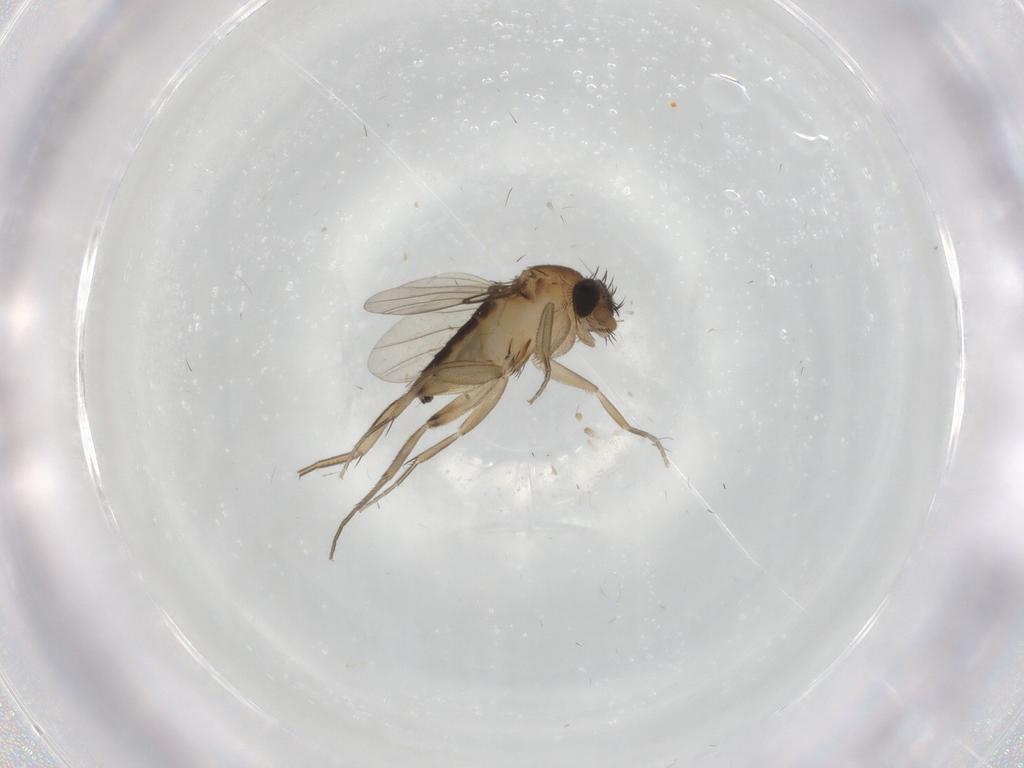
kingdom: Animalia
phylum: Arthropoda
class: Insecta
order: Diptera
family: Phoridae
